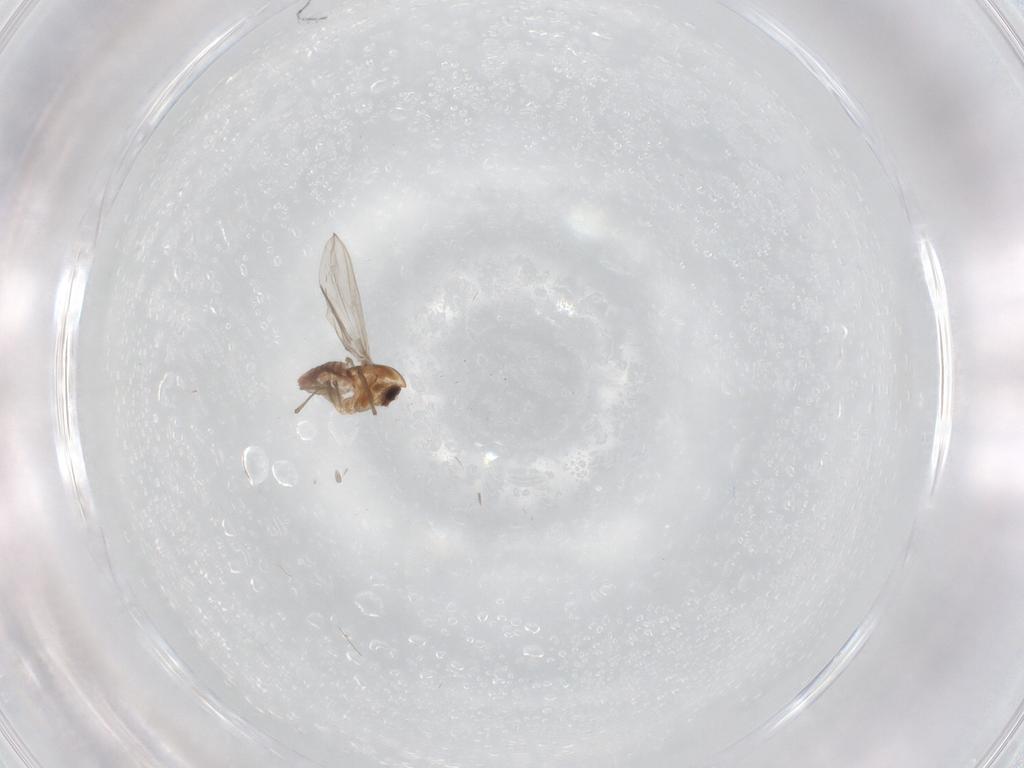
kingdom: Animalia
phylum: Arthropoda
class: Insecta
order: Diptera
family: Chironomidae
